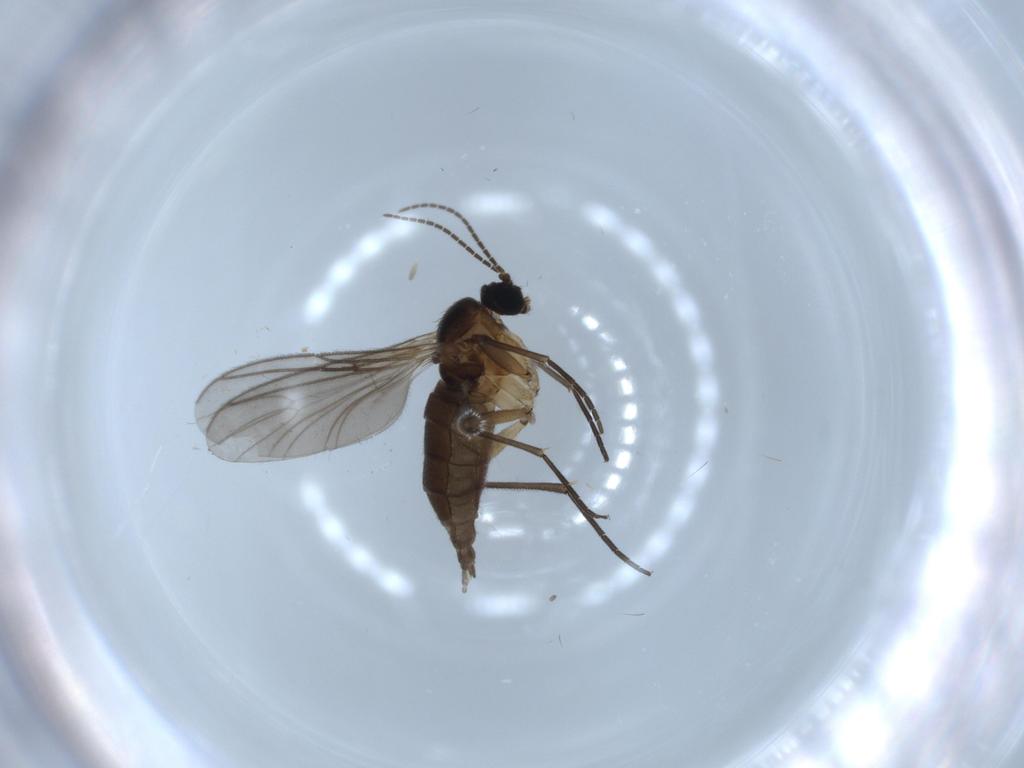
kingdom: Animalia
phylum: Arthropoda
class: Insecta
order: Diptera
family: Sciaridae
